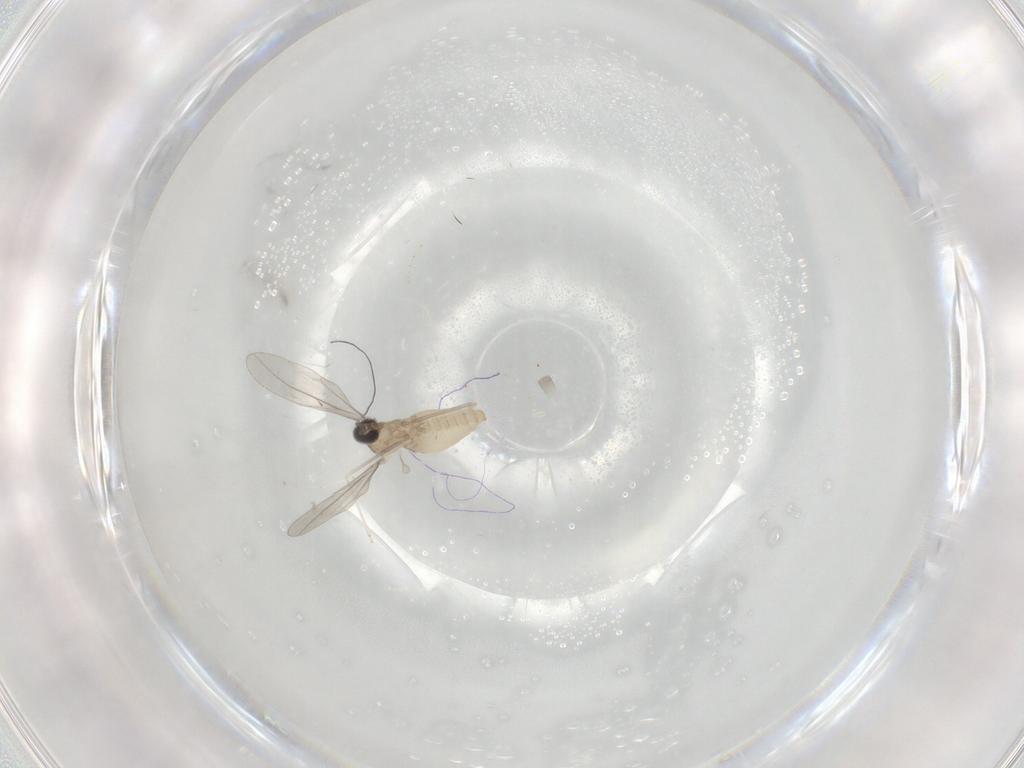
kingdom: Animalia
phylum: Arthropoda
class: Insecta
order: Diptera
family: Cecidomyiidae
